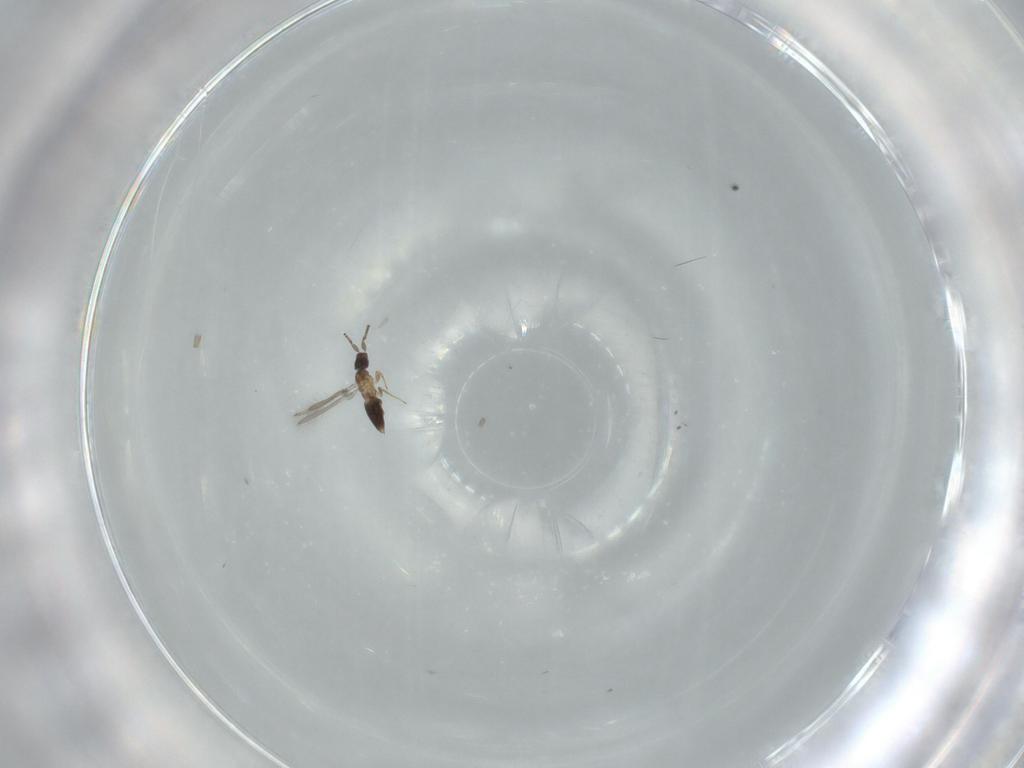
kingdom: Animalia
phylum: Arthropoda
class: Insecta
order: Hymenoptera
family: Mymaridae
